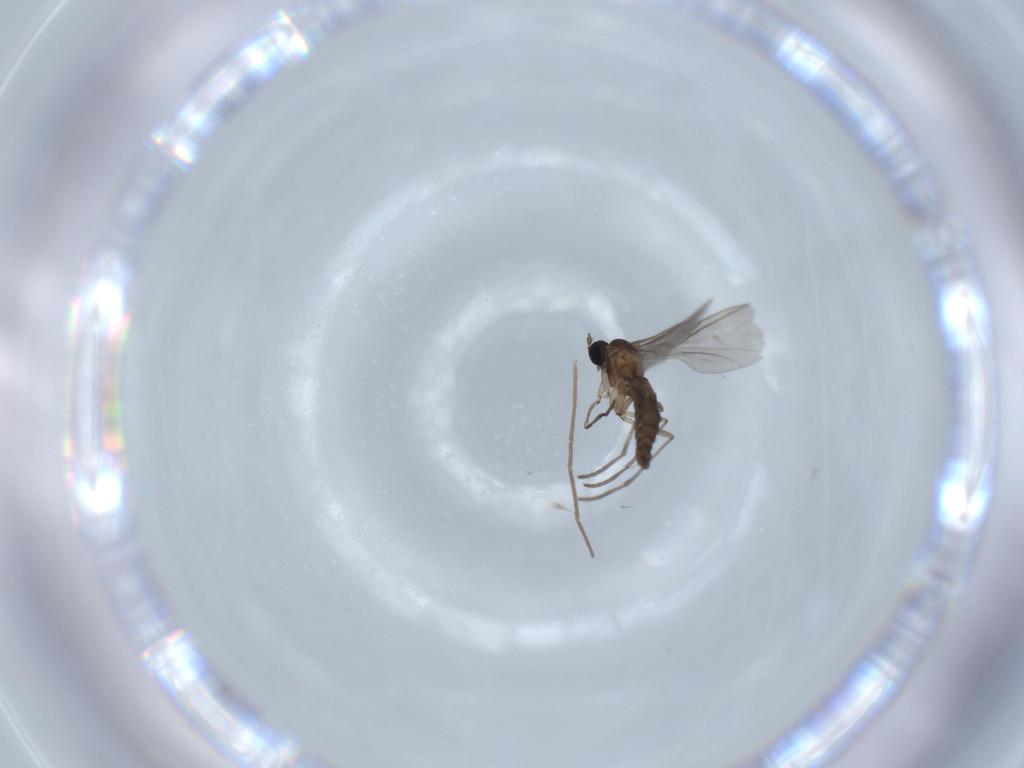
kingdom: Animalia
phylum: Arthropoda
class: Insecta
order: Diptera
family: Sciaridae
